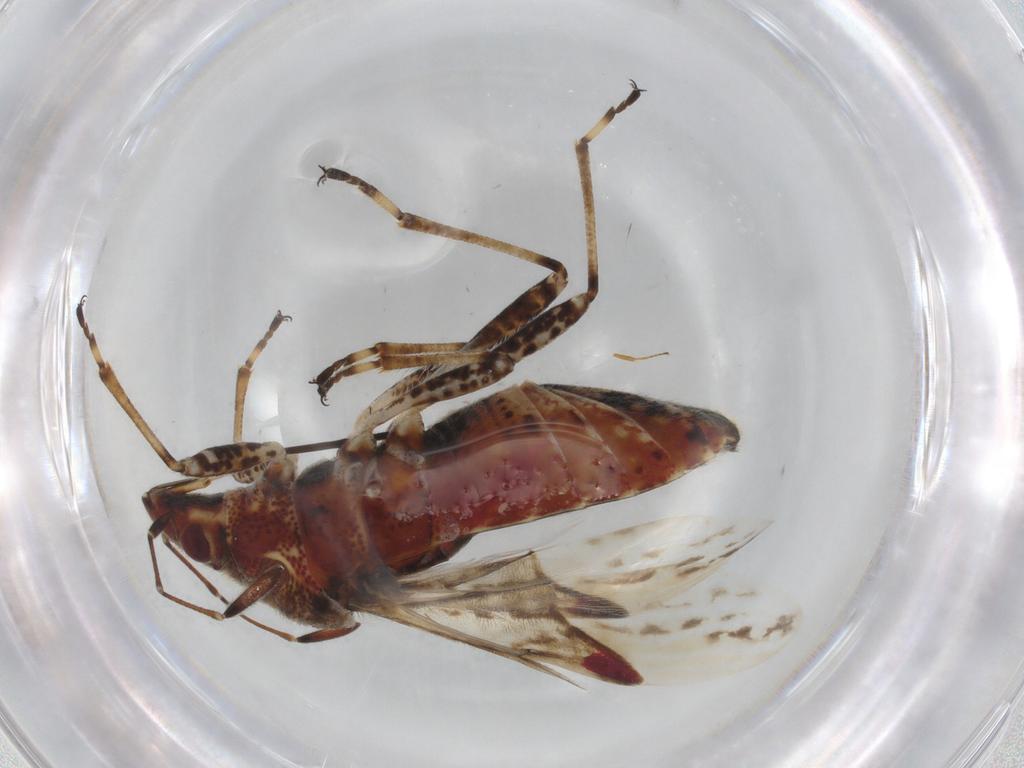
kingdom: Animalia
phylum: Arthropoda
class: Insecta
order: Hemiptera
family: Lygaeidae
